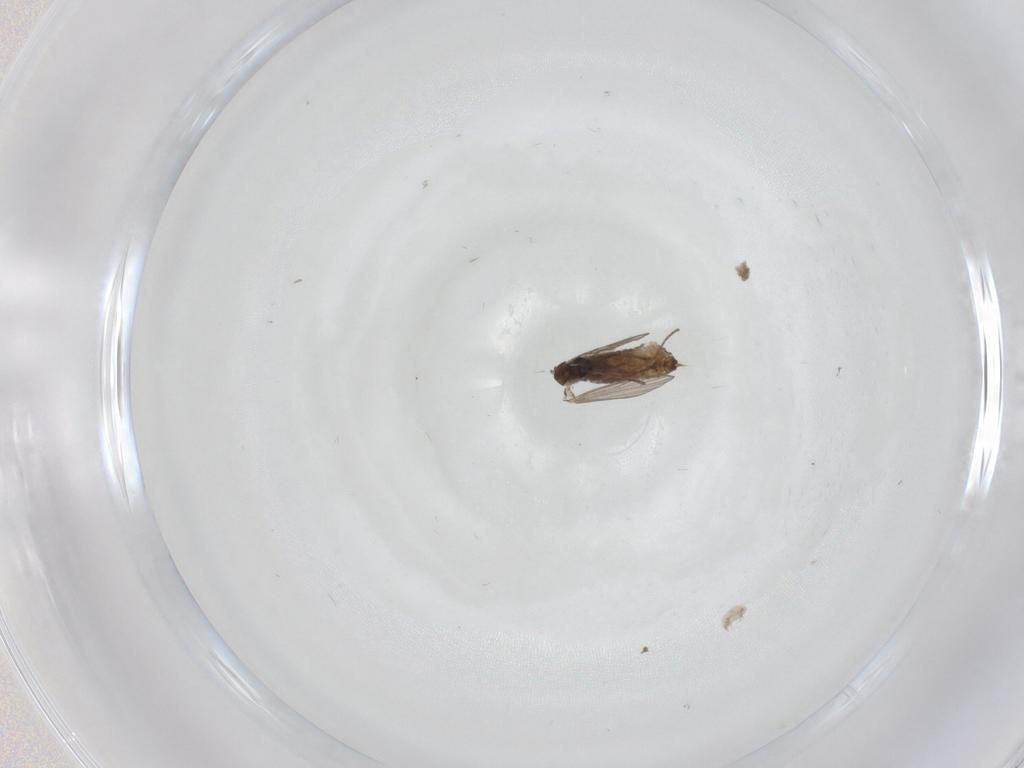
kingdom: Animalia
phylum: Arthropoda
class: Insecta
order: Diptera
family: Psychodidae
